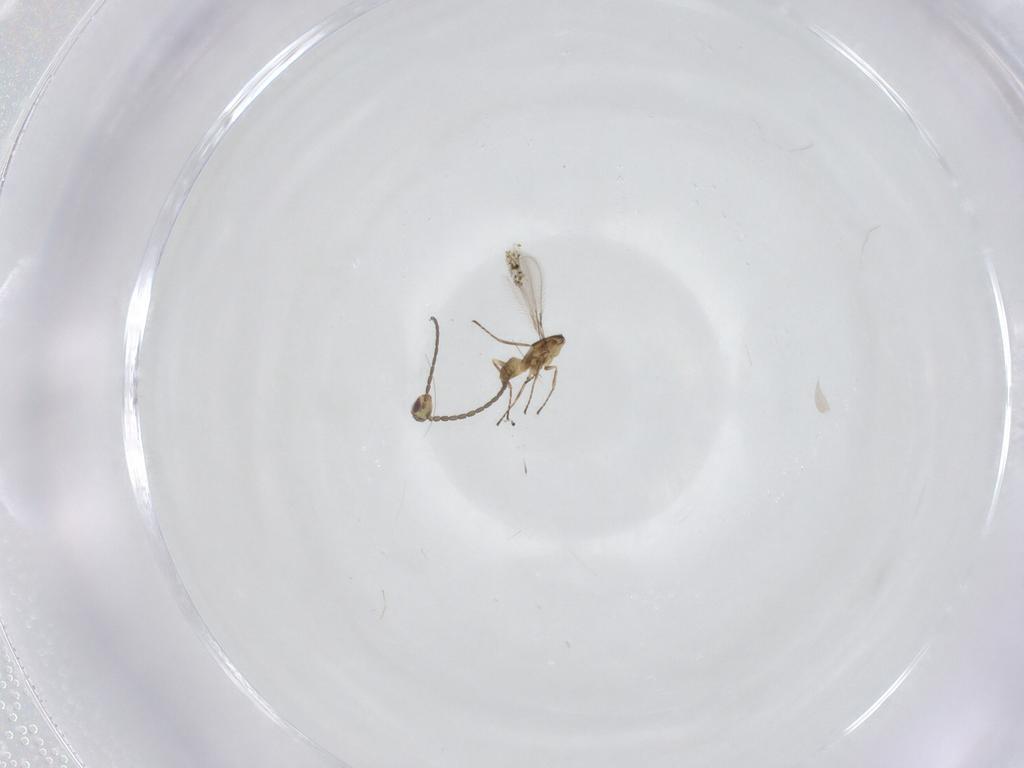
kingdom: Animalia
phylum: Arthropoda
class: Insecta
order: Diptera
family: Chironomidae
